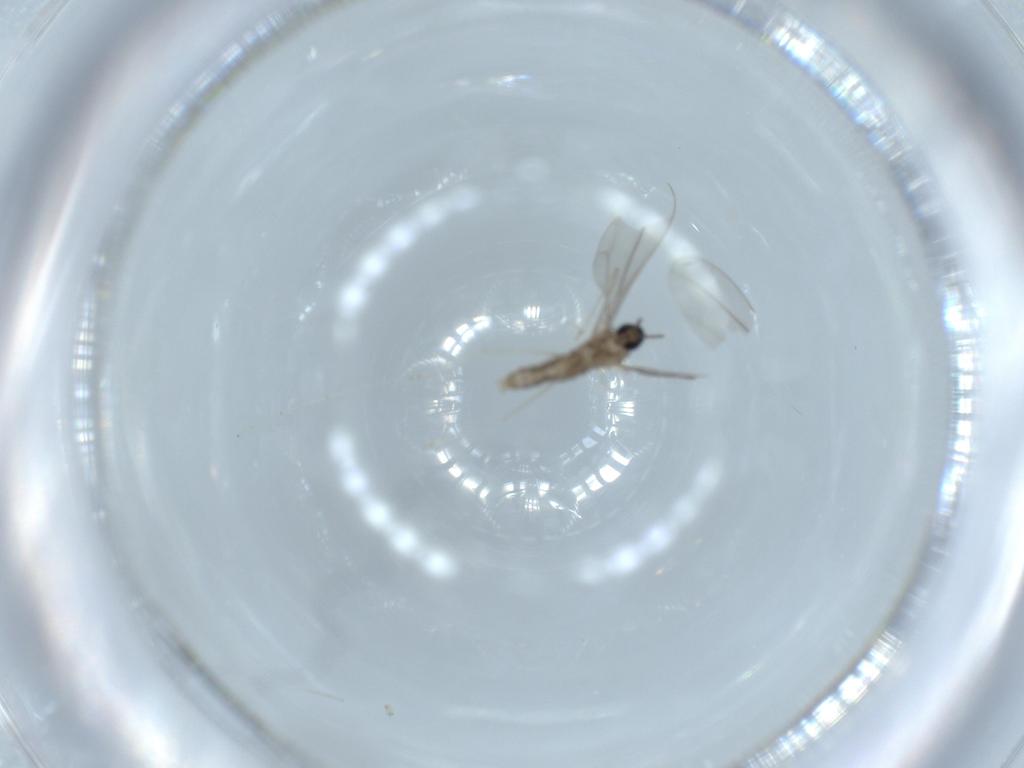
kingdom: Animalia
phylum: Arthropoda
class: Insecta
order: Diptera
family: Cecidomyiidae
